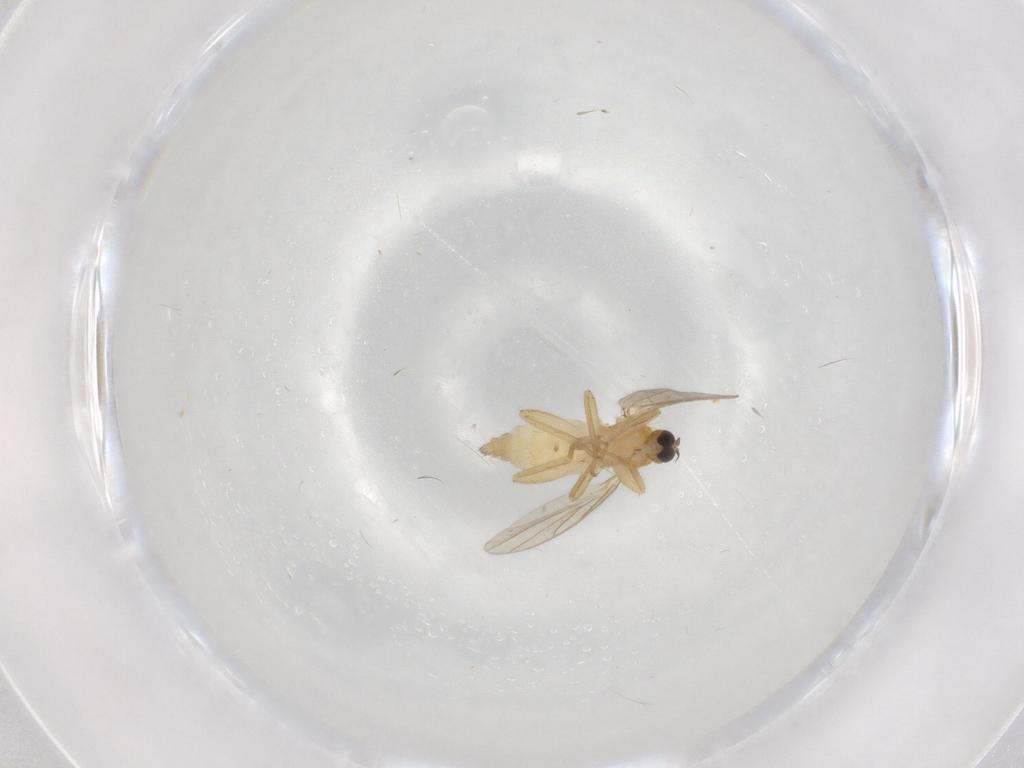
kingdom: Animalia
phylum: Arthropoda
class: Insecta
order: Diptera
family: Hybotidae
